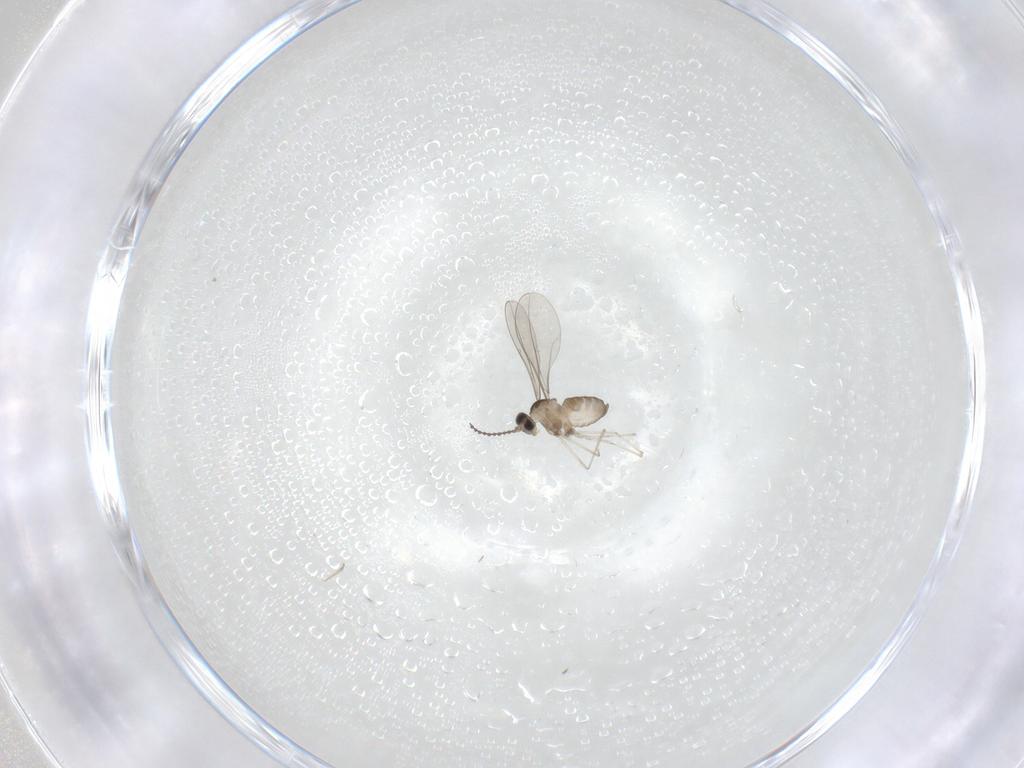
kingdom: Animalia
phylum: Arthropoda
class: Insecta
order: Diptera
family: Cecidomyiidae
